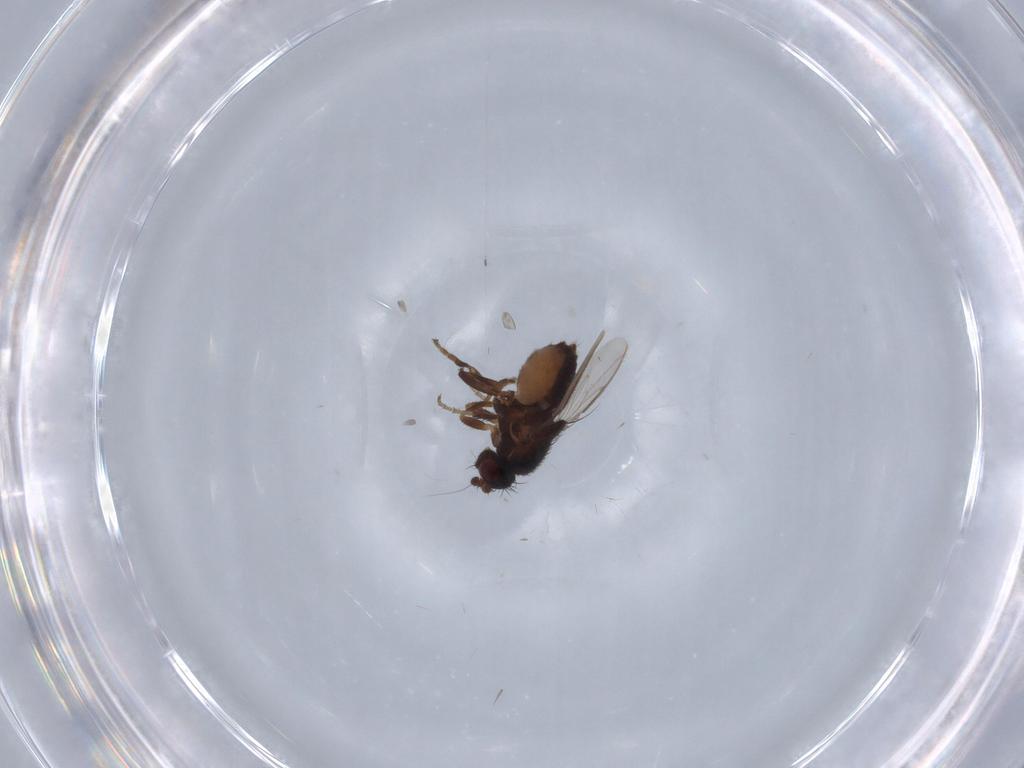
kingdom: Animalia
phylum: Arthropoda
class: Insecta
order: Diptera
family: Sphaeroceridae
